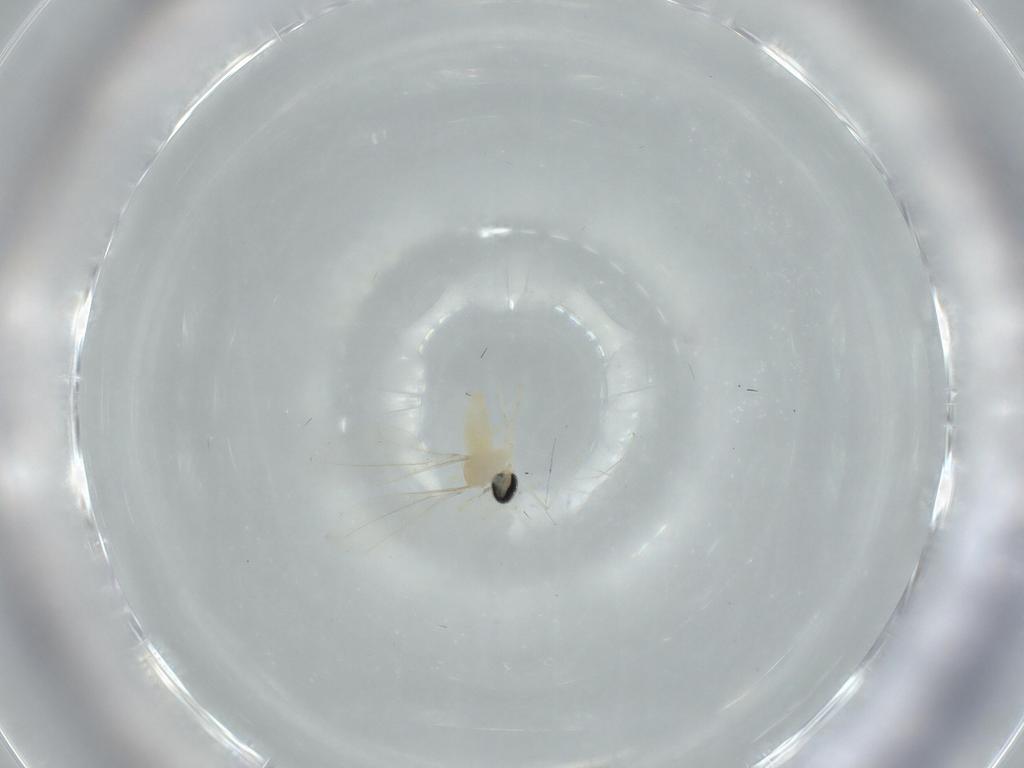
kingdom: Animalia
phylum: Arthropoda
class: Insecta
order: Diptera
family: Cecidomyiidae
